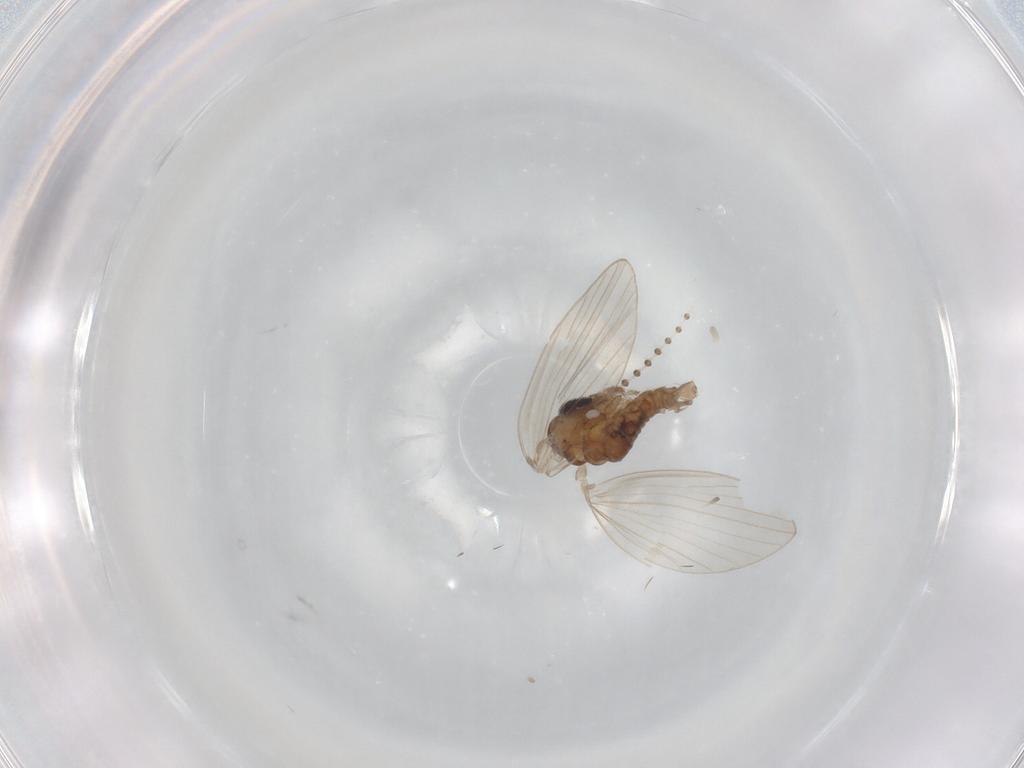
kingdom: Animalia
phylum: Arthropoda
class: Insecta
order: Diptera
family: Psychodidae
